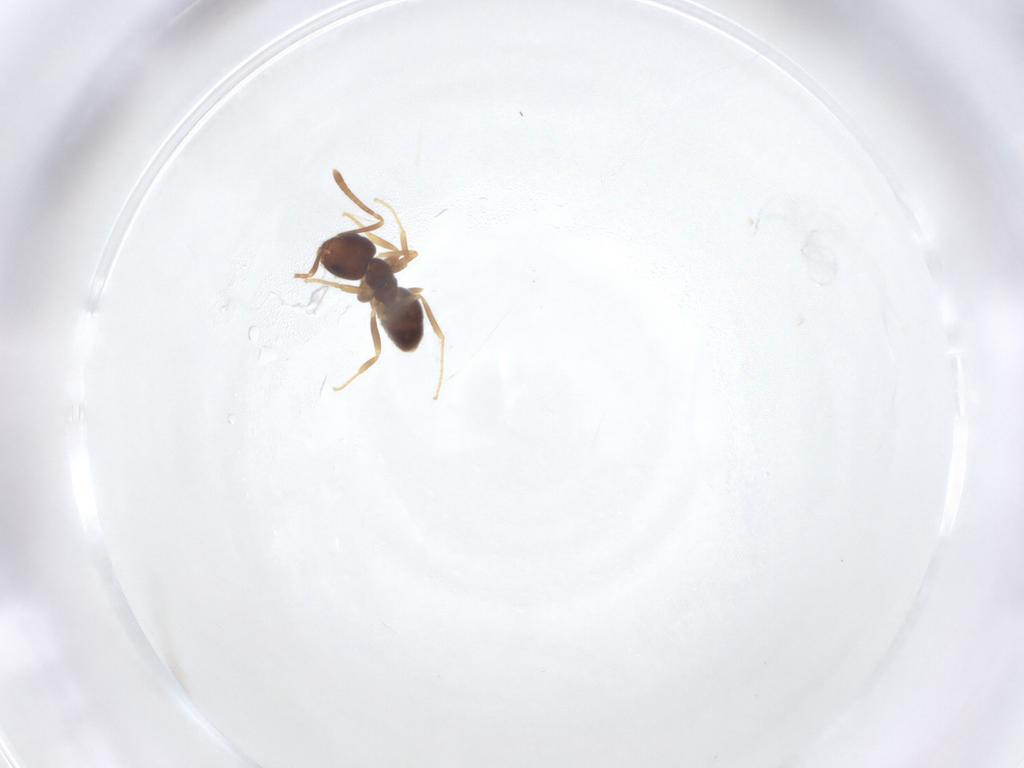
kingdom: Animalia
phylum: Arthropoda
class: Insecta
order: Hymenoptera
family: Formicidae
